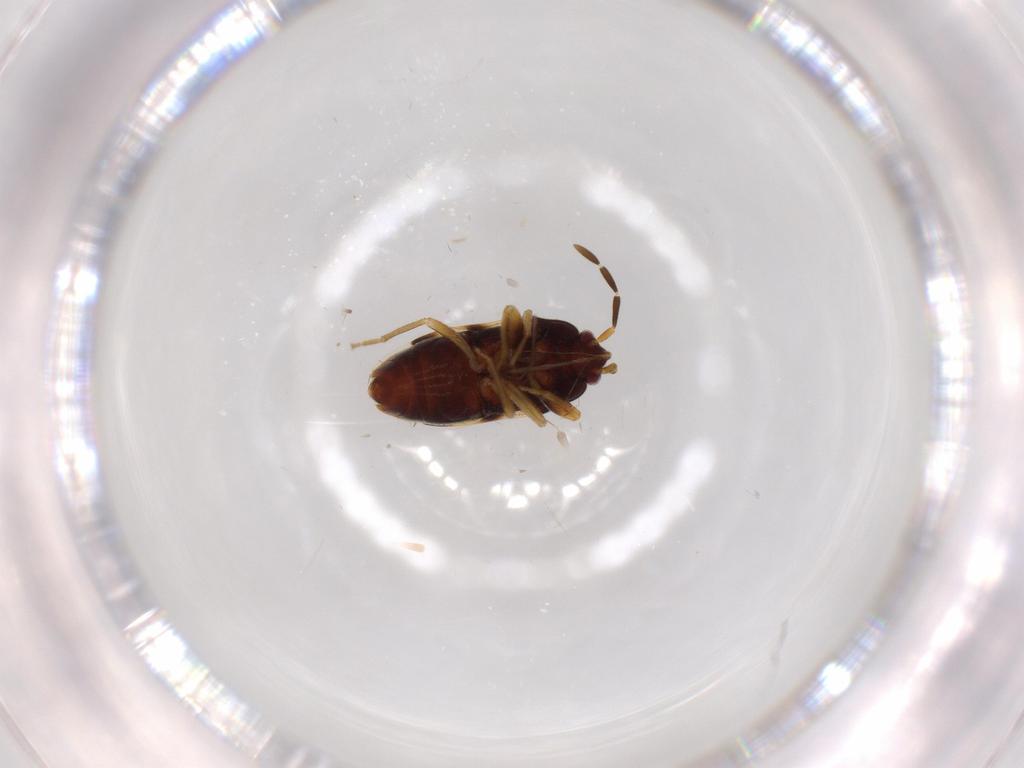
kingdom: Animalia
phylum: Arthropoda
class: Insecta
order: Hemiptera
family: Rhyparochromidae
